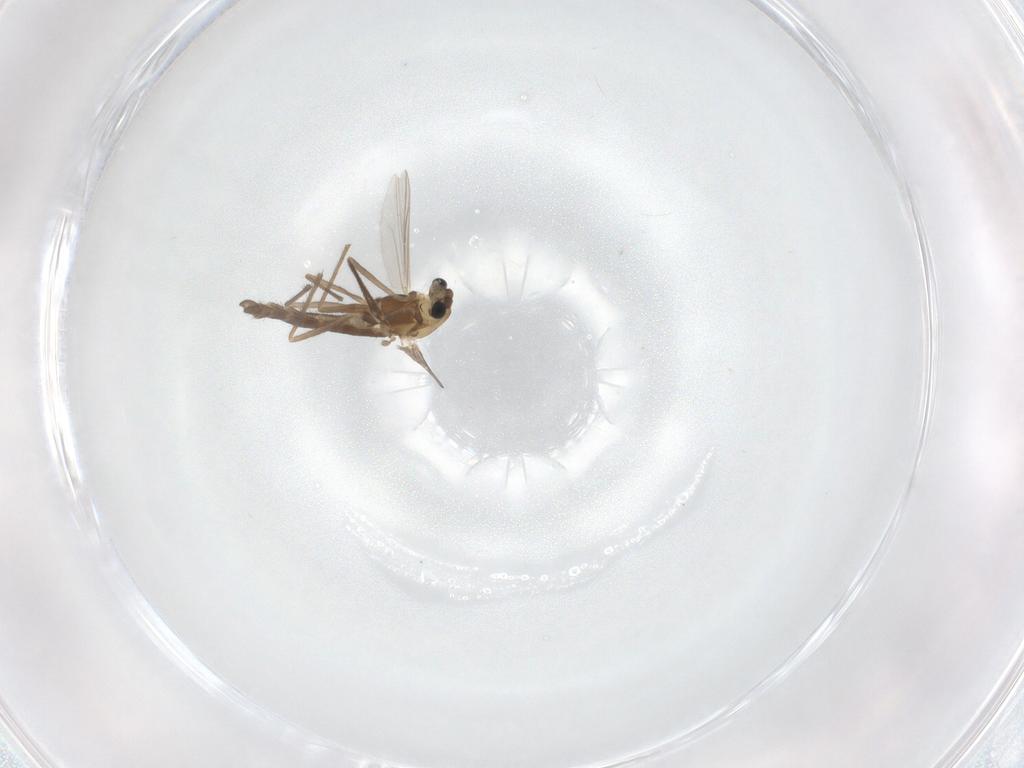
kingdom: Animalia
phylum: Arthropoda
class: Insecta
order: Diptera
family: Chironomidae
